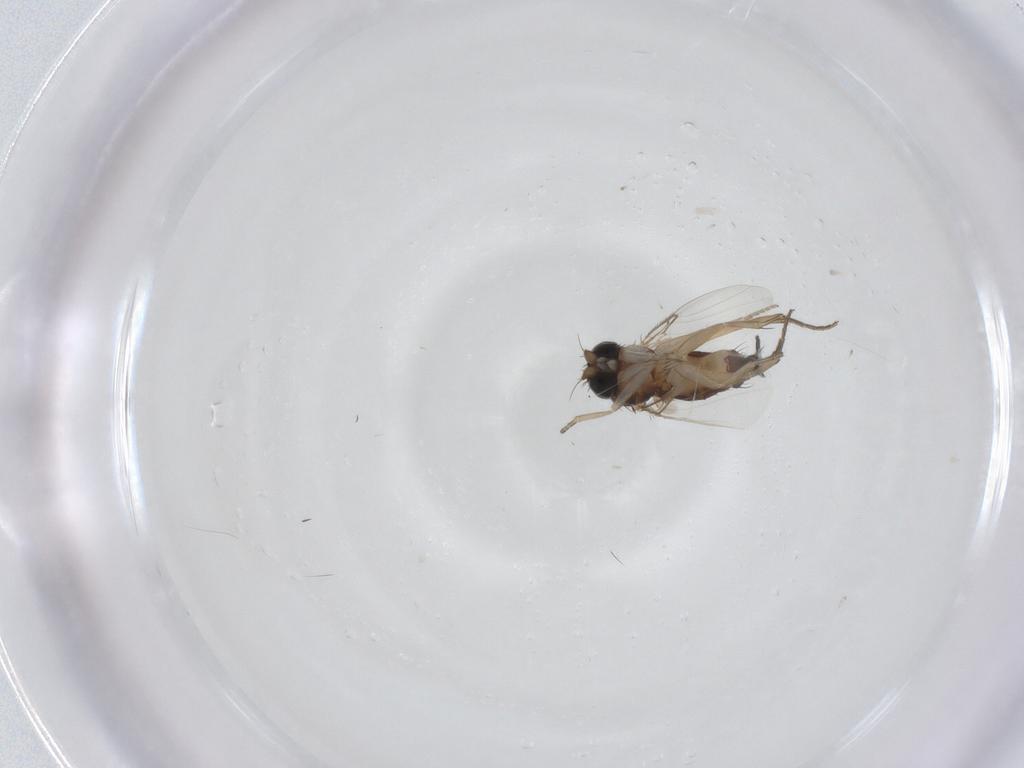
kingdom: Animalia
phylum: Arthropoda
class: Insecta
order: Diptera
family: Phoridae
